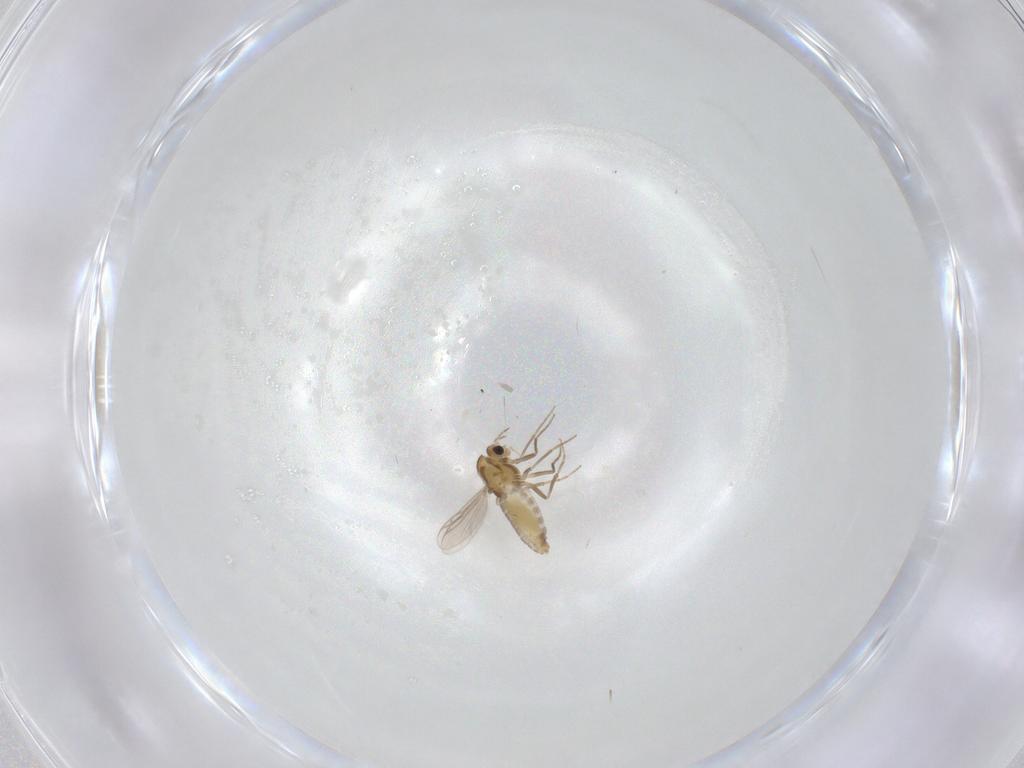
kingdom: Animalia
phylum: Arthropoda
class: Insecta
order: Diptera
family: Chironomidae
